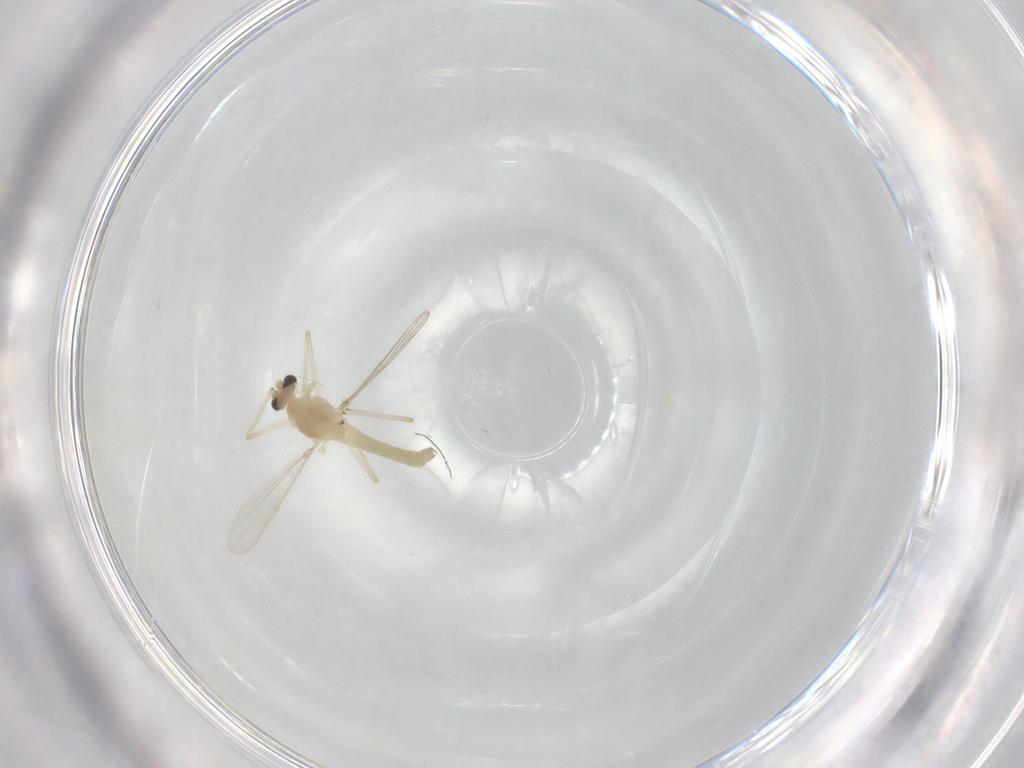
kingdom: Animalia
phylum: Arthropoda
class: Insecta
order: Diptera
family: Chironomidae
